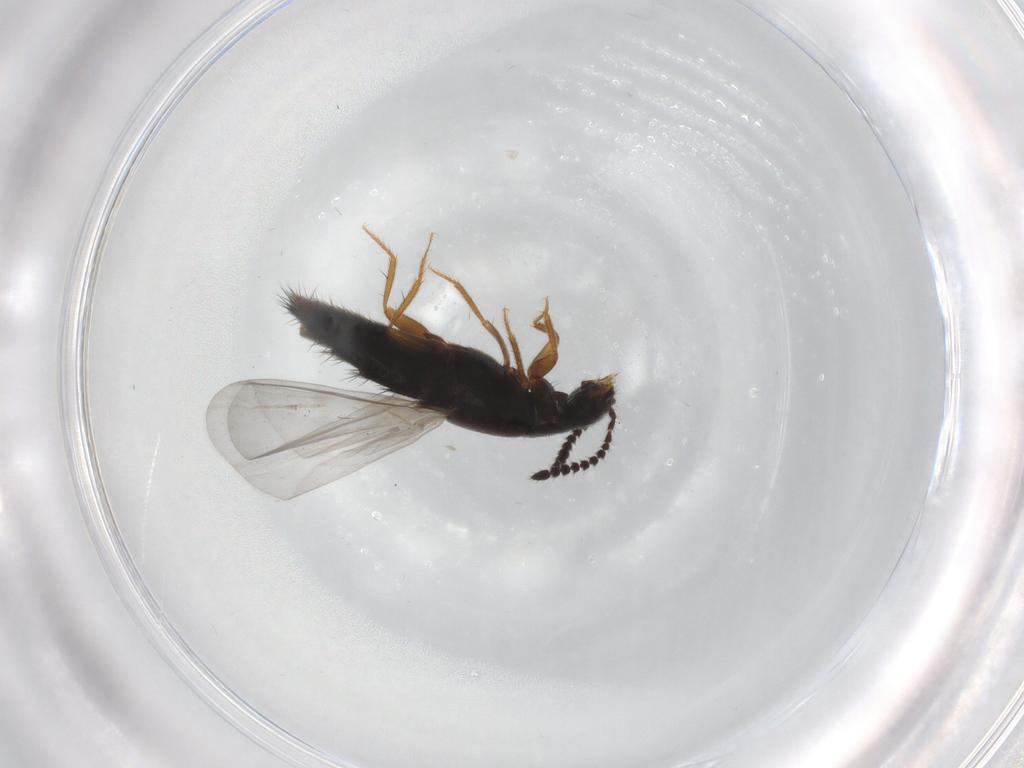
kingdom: Animalia
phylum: Arthropoda
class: Insecta
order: Coleoptera
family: Staphylinidae
